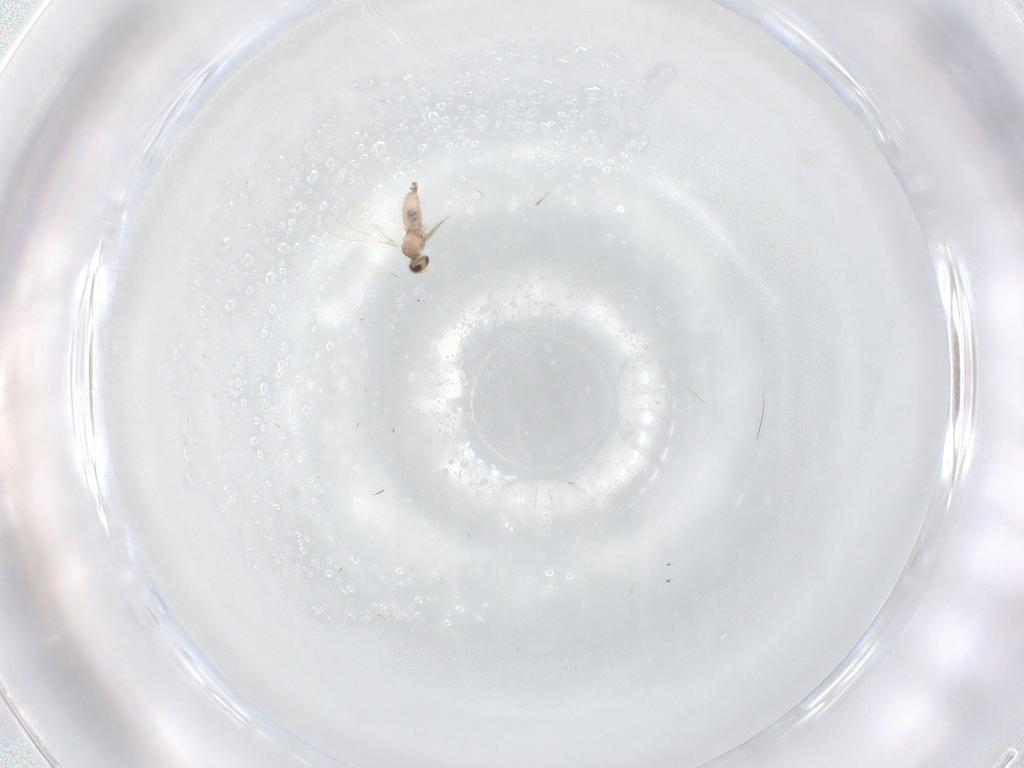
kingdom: Animalia
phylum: Arthropoda
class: Insecta
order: Diptera
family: Cecidomyiidae
